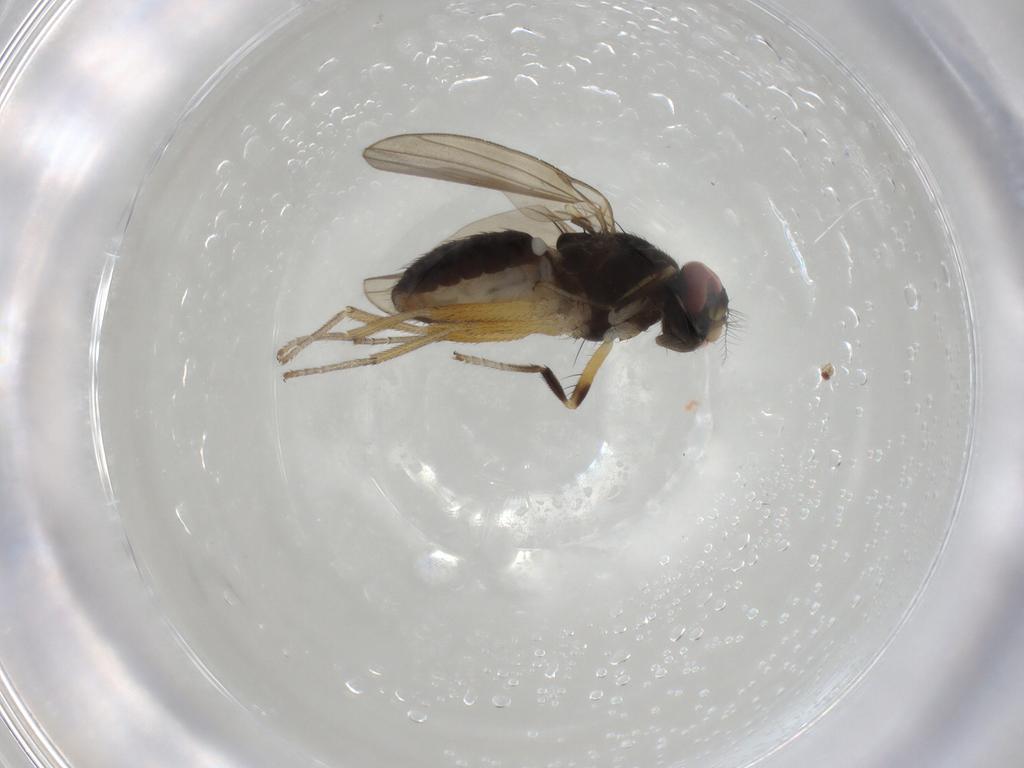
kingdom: Animalia
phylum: Arthropoda
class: Insecta
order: Diptera
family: Lauxaniidae
